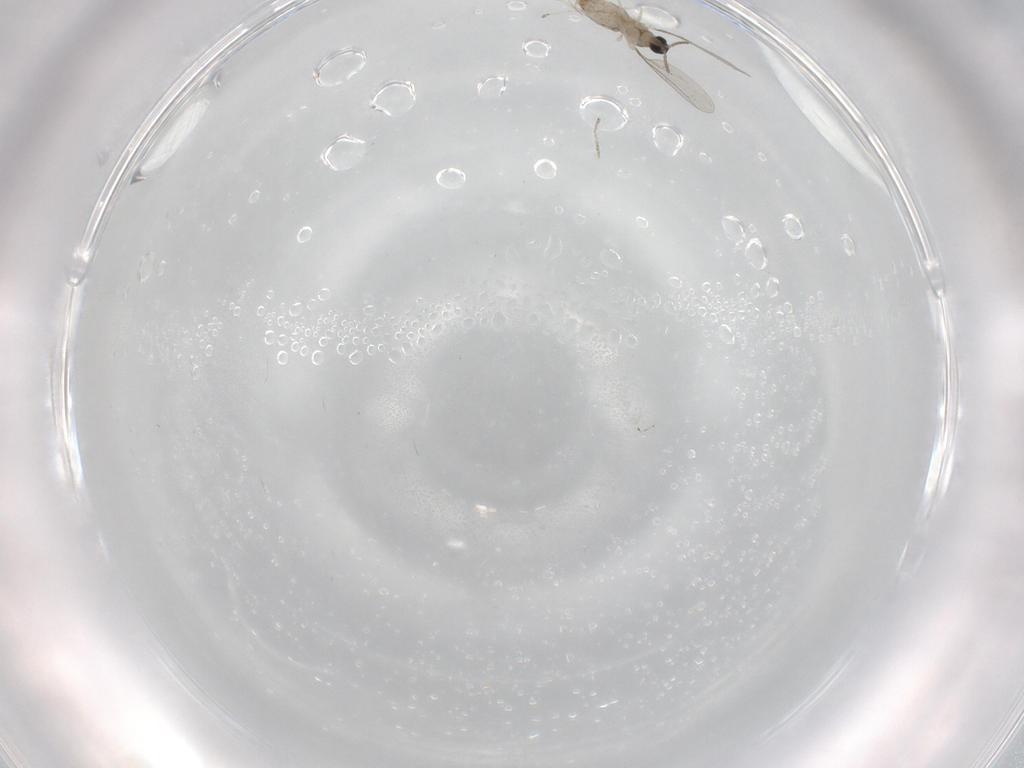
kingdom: Animalia
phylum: Arthropoda
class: Insecta
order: Diptera
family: Cecidomyiidae
